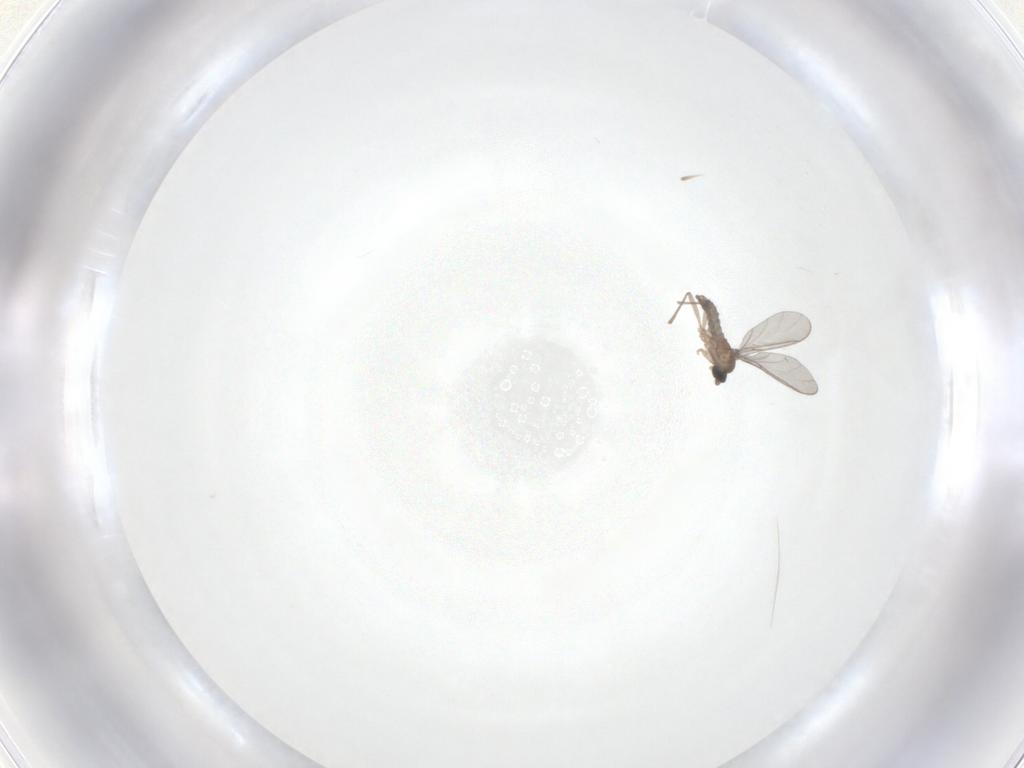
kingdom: Animalia
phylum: Arthropoda
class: Insecta
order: Diptera
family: Sciaridae
